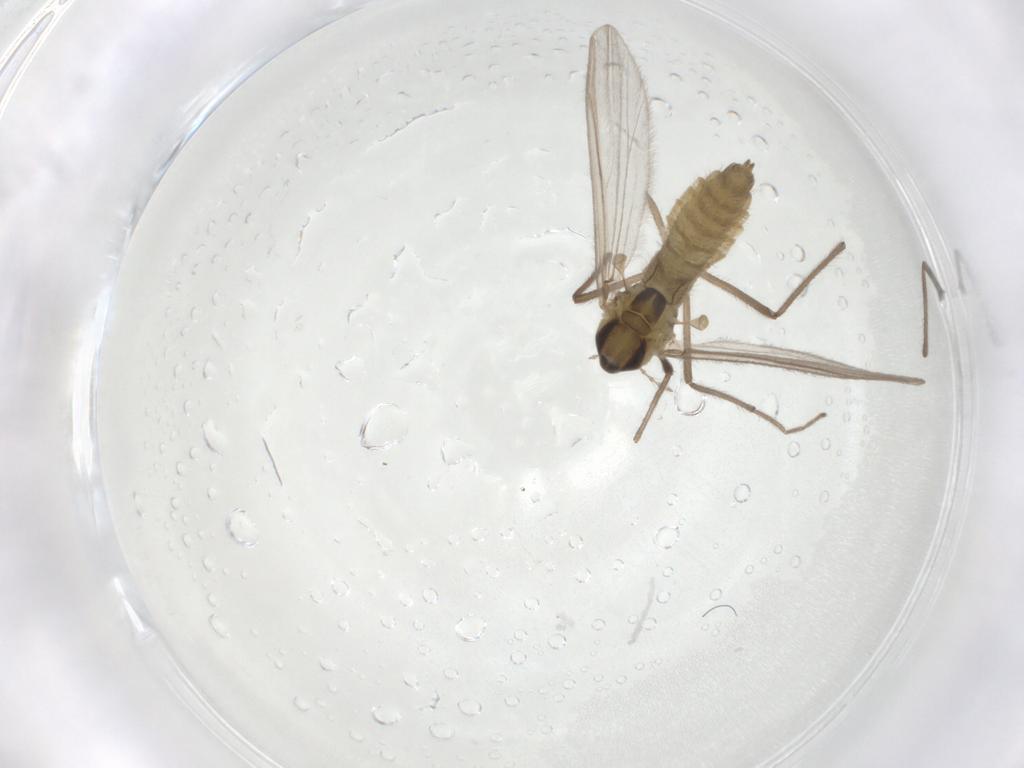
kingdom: Animalia
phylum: Arthropoda
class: Insecta
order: Diptera
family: Chironomidae
